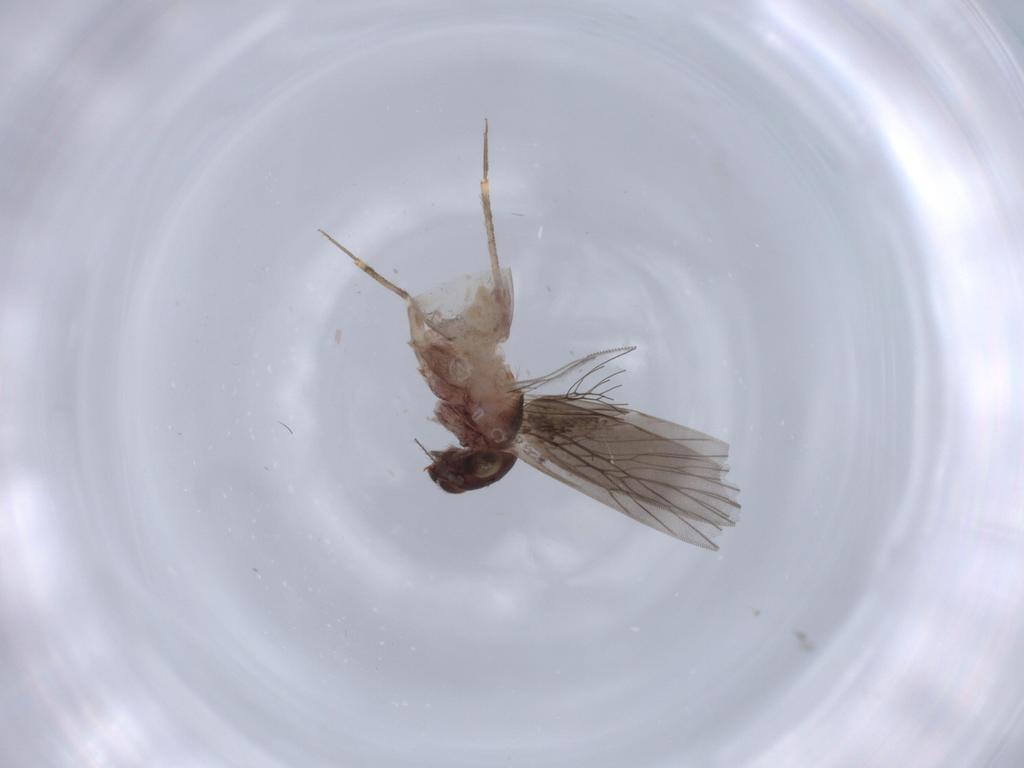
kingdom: Animalia
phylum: Arthropoda
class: Insecta
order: Psocodea
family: Lepidopsocidae
